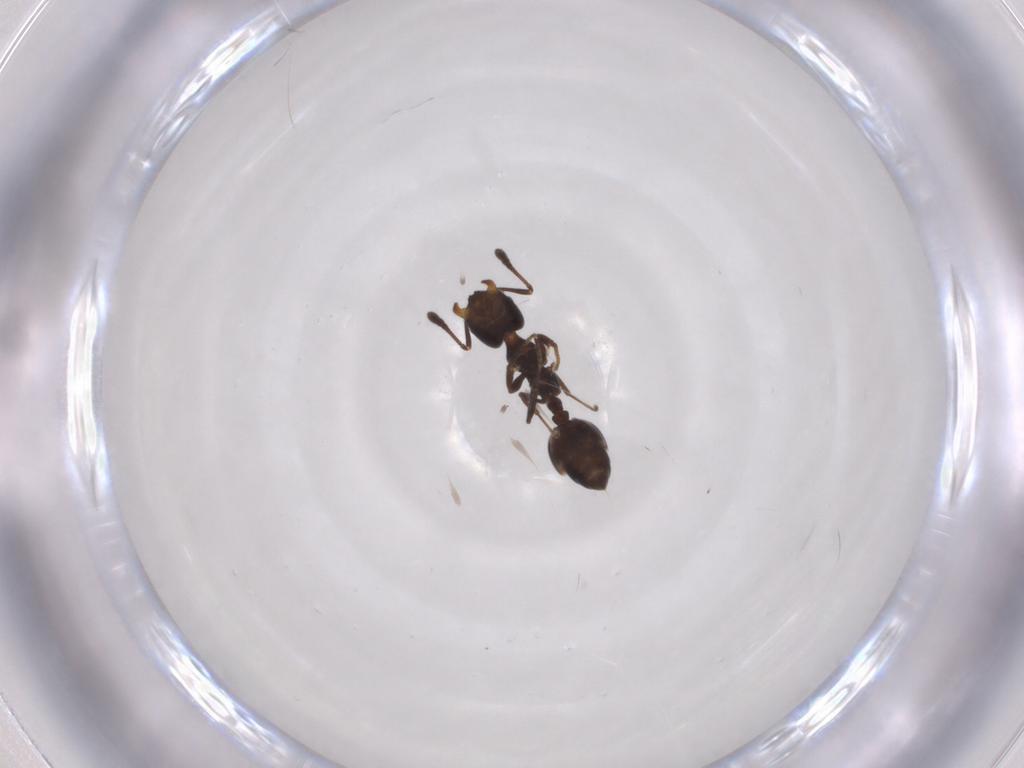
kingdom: Animalia
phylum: Arthropoda
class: Insecta
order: Hymenoptera
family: Formicidae
